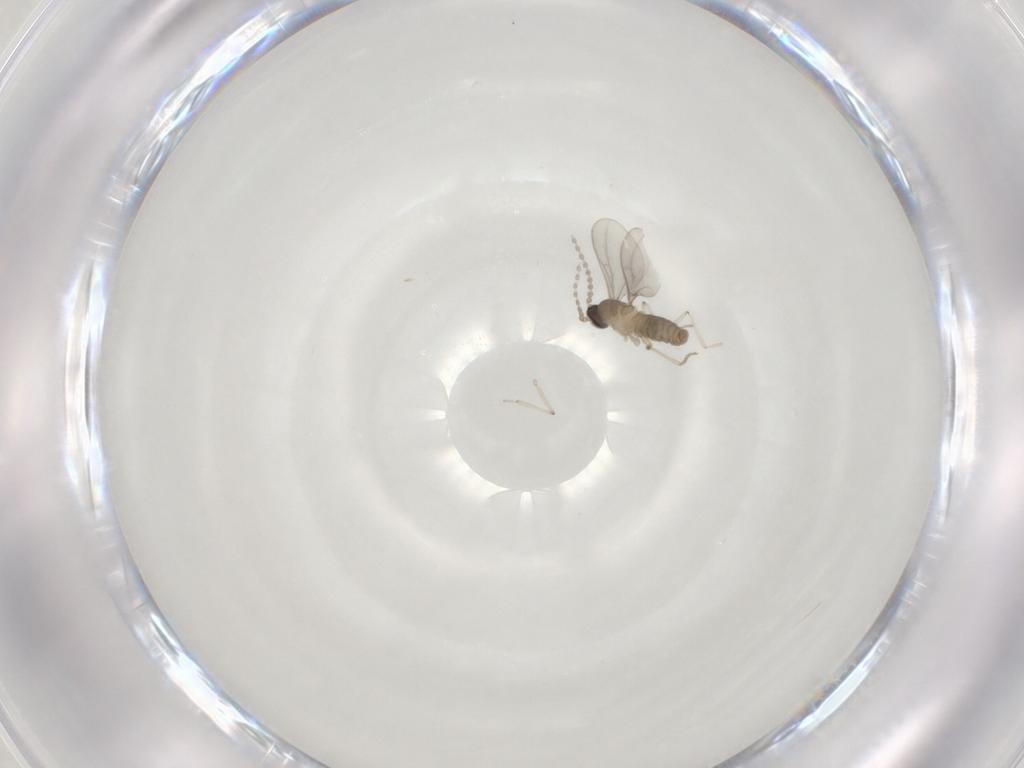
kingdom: Animalia
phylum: Arthropoda
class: Insecta
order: Diptera
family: Cecidomyiidae
